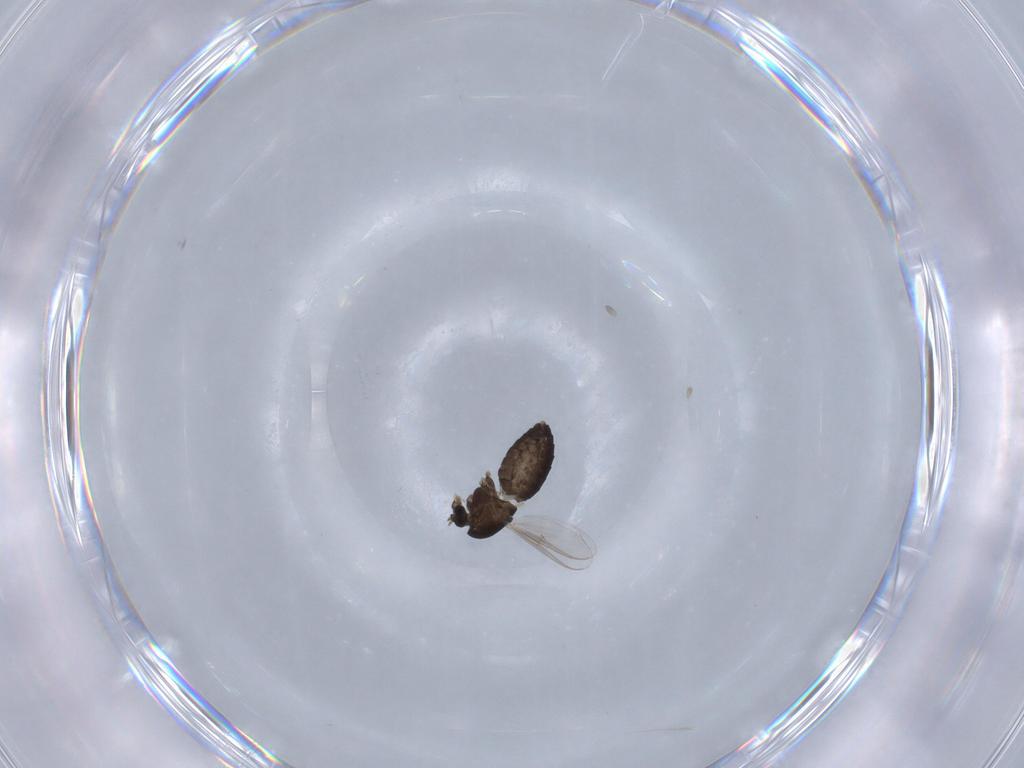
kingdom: Animalia
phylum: Arthropoda
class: Insecta
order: Diptera
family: Chironomidae
